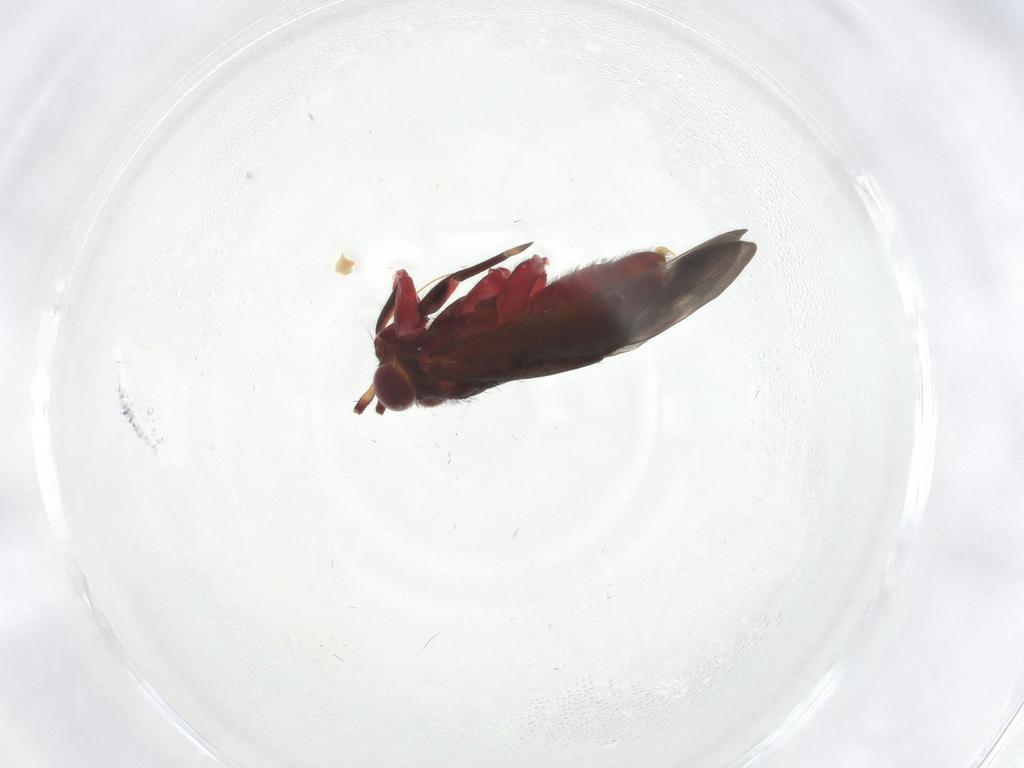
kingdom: Animalia
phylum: Arthropoda
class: Insecta
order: Hemiptera
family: Miridae
